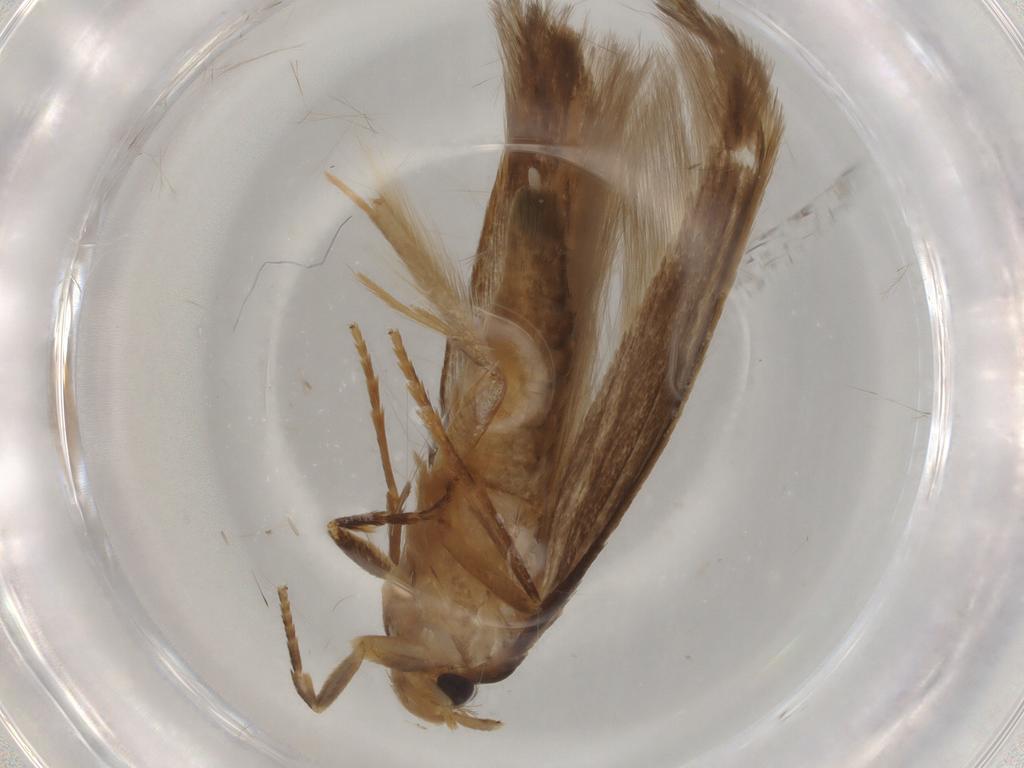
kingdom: Animalia
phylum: Arthropoda
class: Insecta
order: Lepidoptera
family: Tineidae
